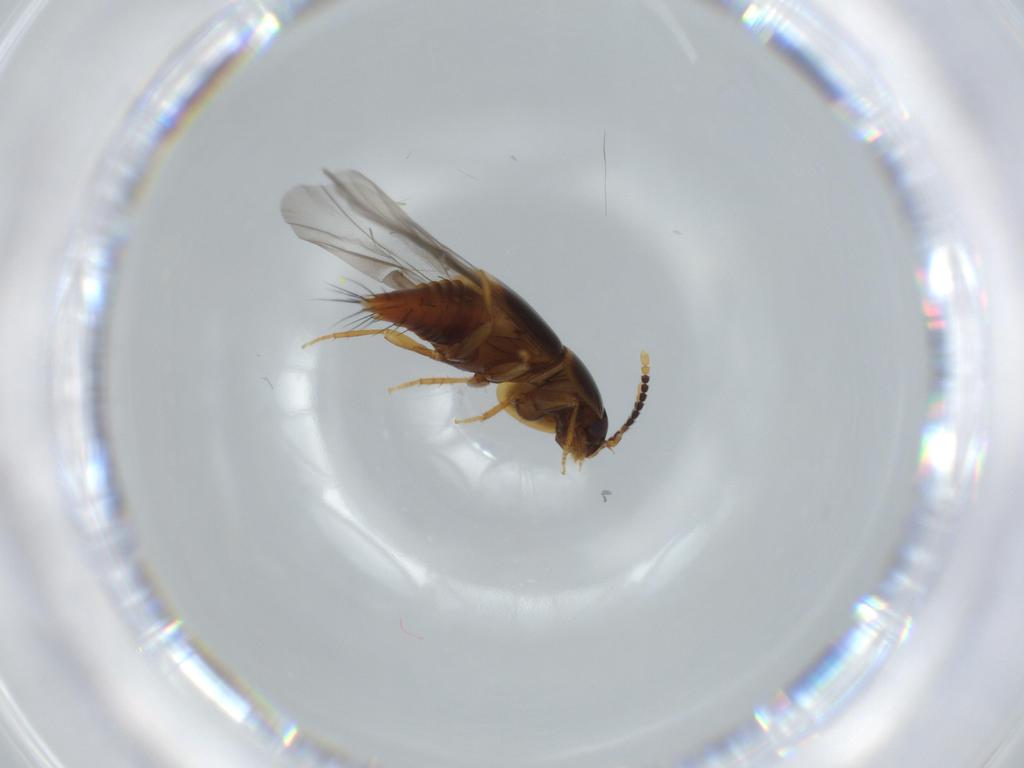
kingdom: Animalia
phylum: Arthropoda
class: Insecta
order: Coleoptera
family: Staphylinidae
